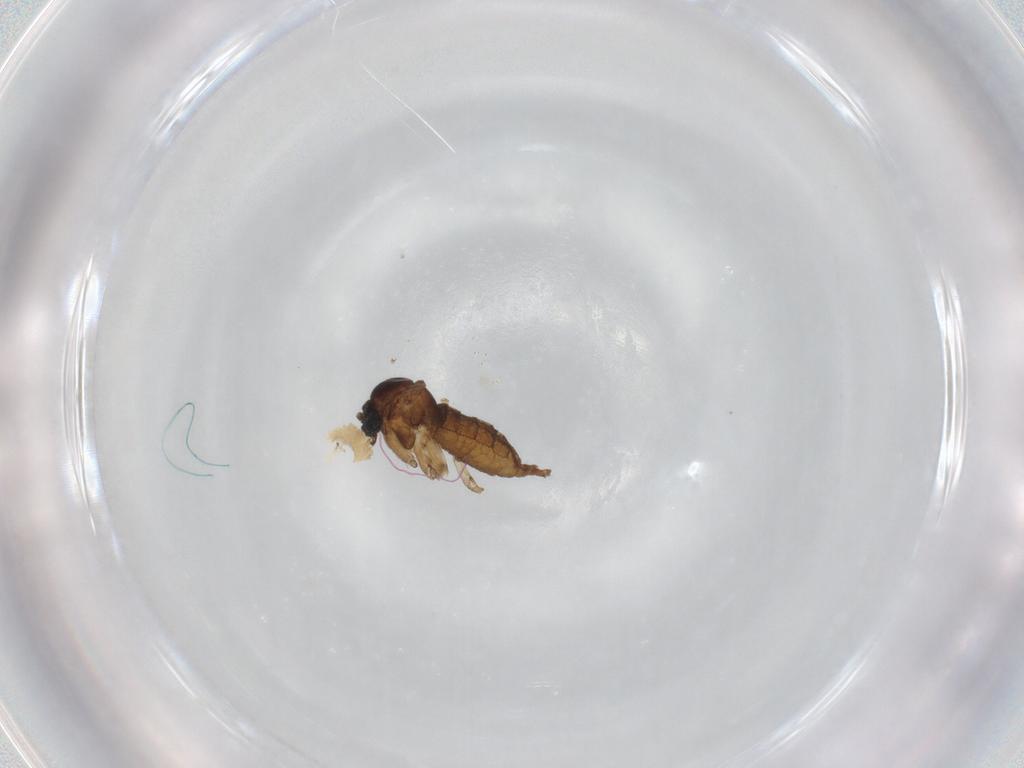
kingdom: Animalia
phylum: Arthropoda
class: Insecta
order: Diptera
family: Sciaridae
